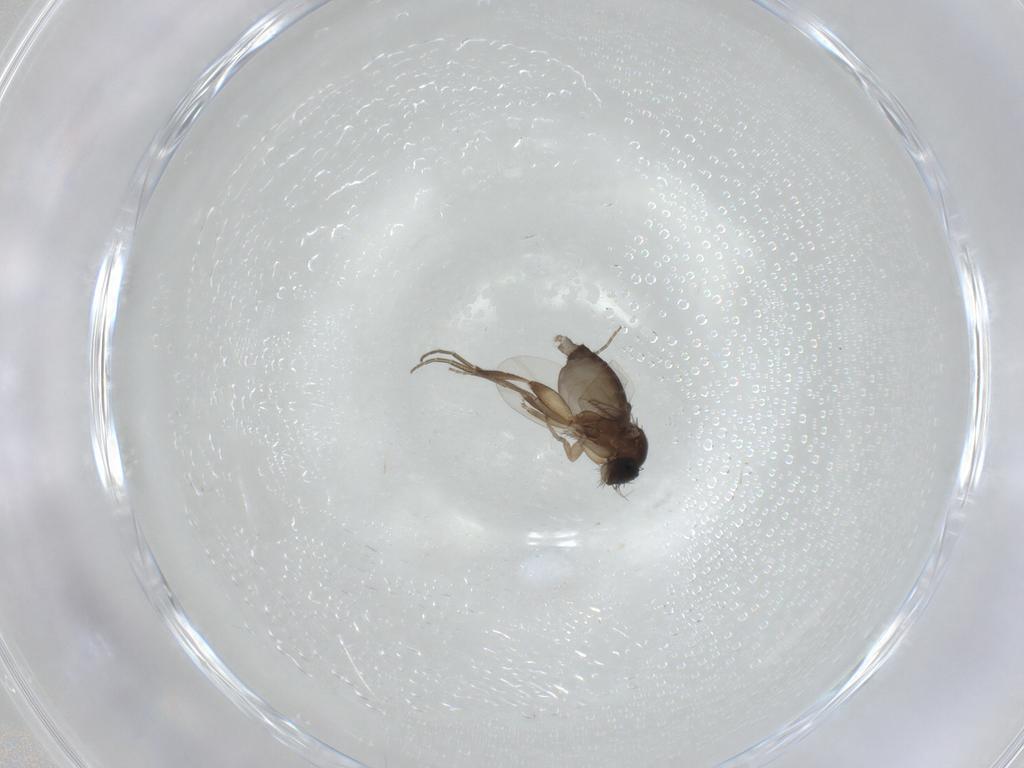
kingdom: Animalia
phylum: Arthropoda
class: Insecta
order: Diptera
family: Phoridae
